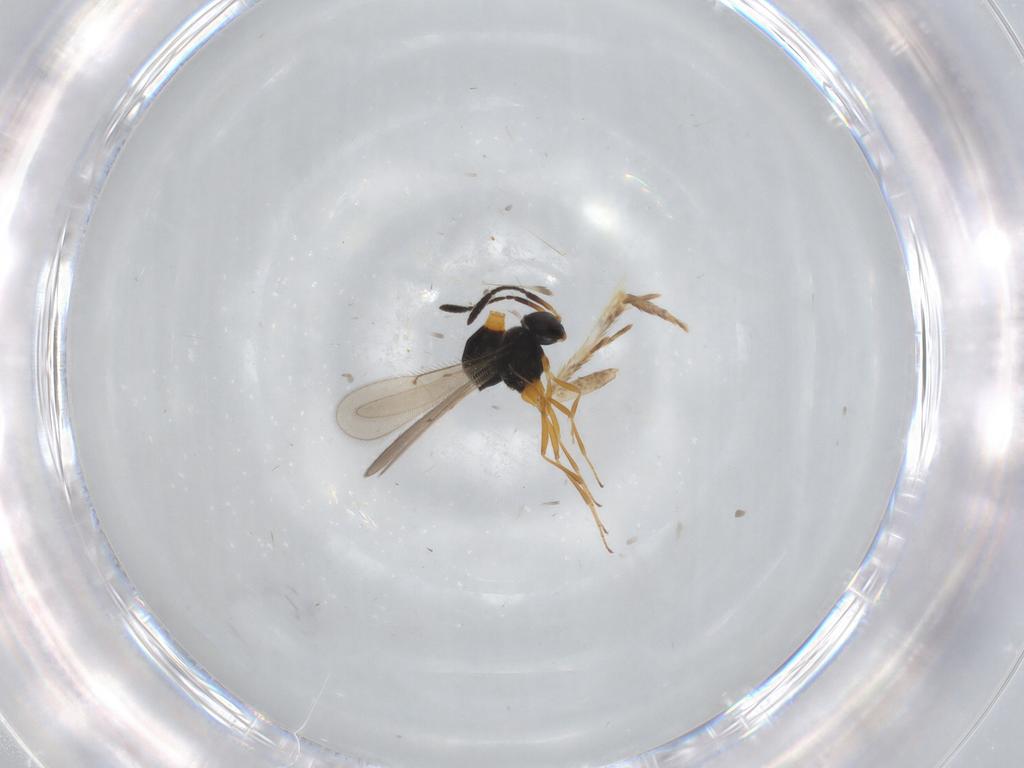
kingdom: Animalia
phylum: Arthropoda
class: Insecta
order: Hymenoptera
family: Scelionidae
